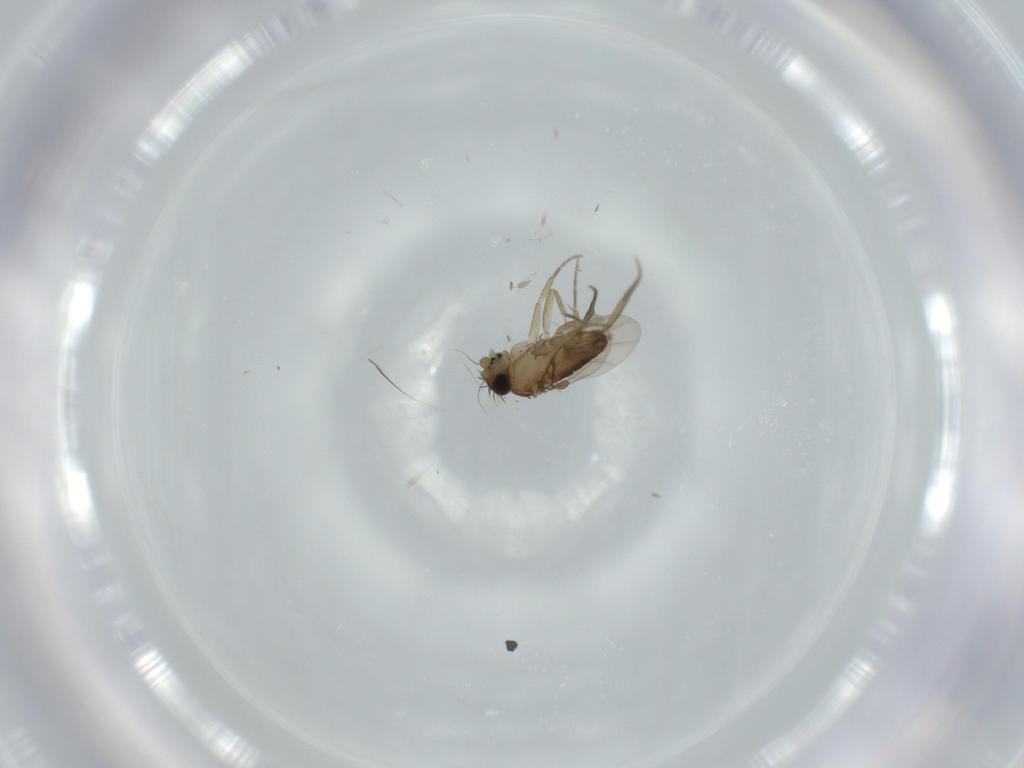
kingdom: Animalia
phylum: Arthropoda
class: Insecta
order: Diptera
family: Phoridae
